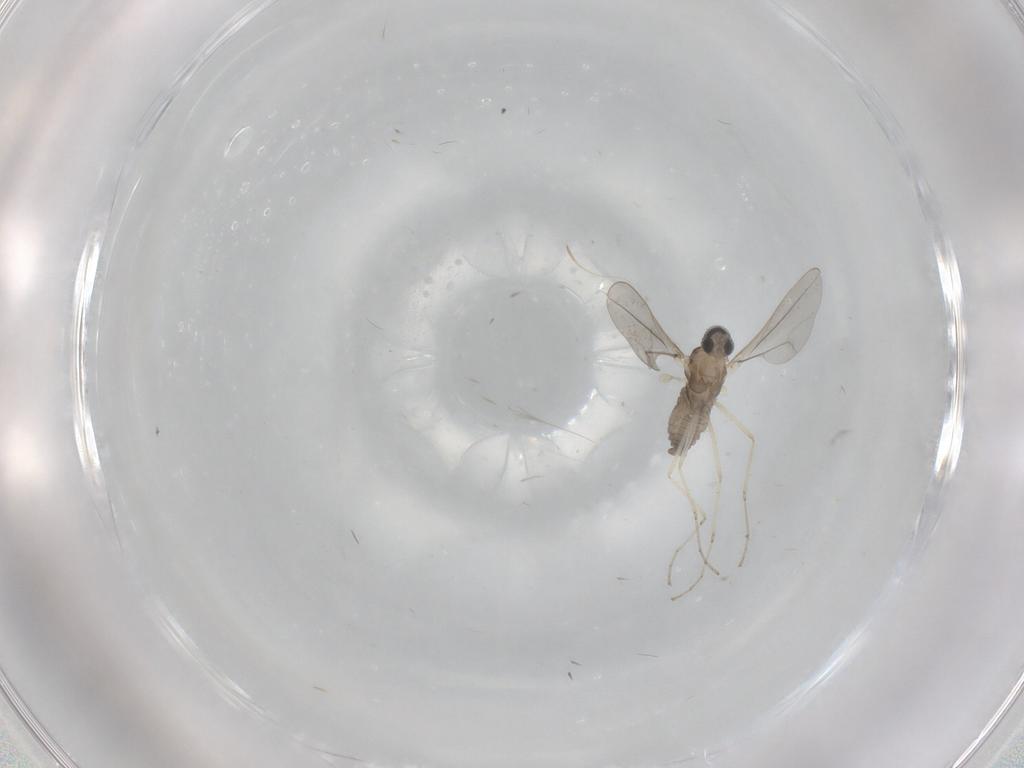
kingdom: Animalia
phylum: Arthropoda
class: Insecta
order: Diptera
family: Cecidomyiidae
